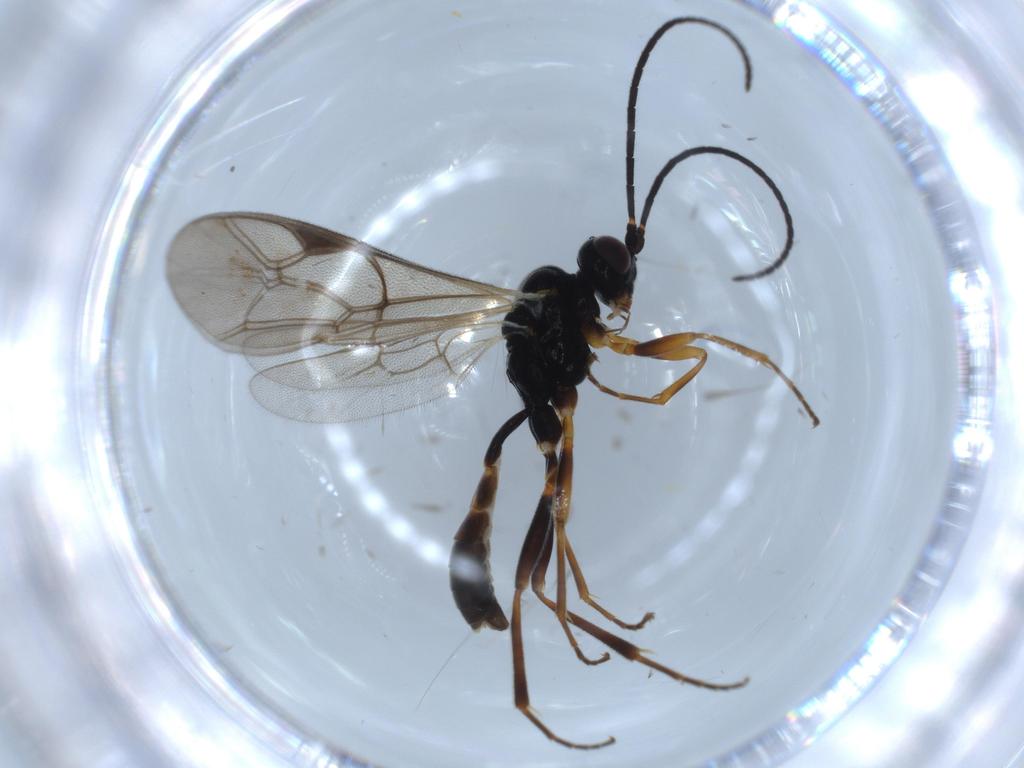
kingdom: Animalia
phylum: Arthropoda
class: Insecta
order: Hymenoptera
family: Ichneumonidae
